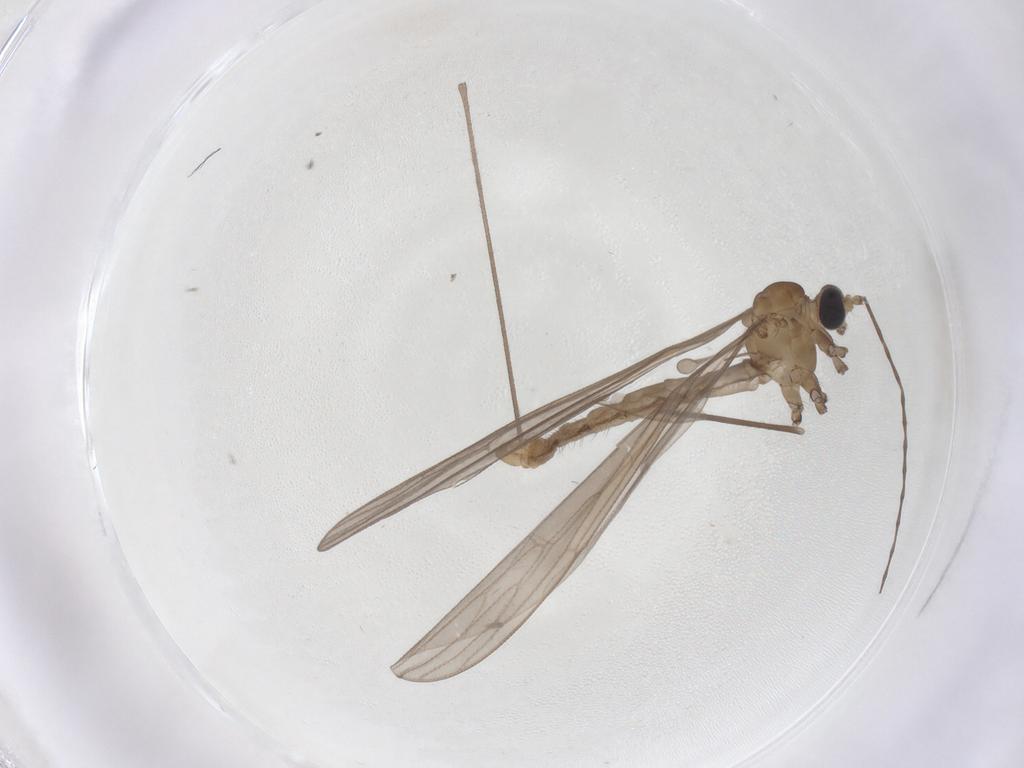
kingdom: Animalia
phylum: Arthropoda
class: Insecta
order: Diptera
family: Limoniidae
